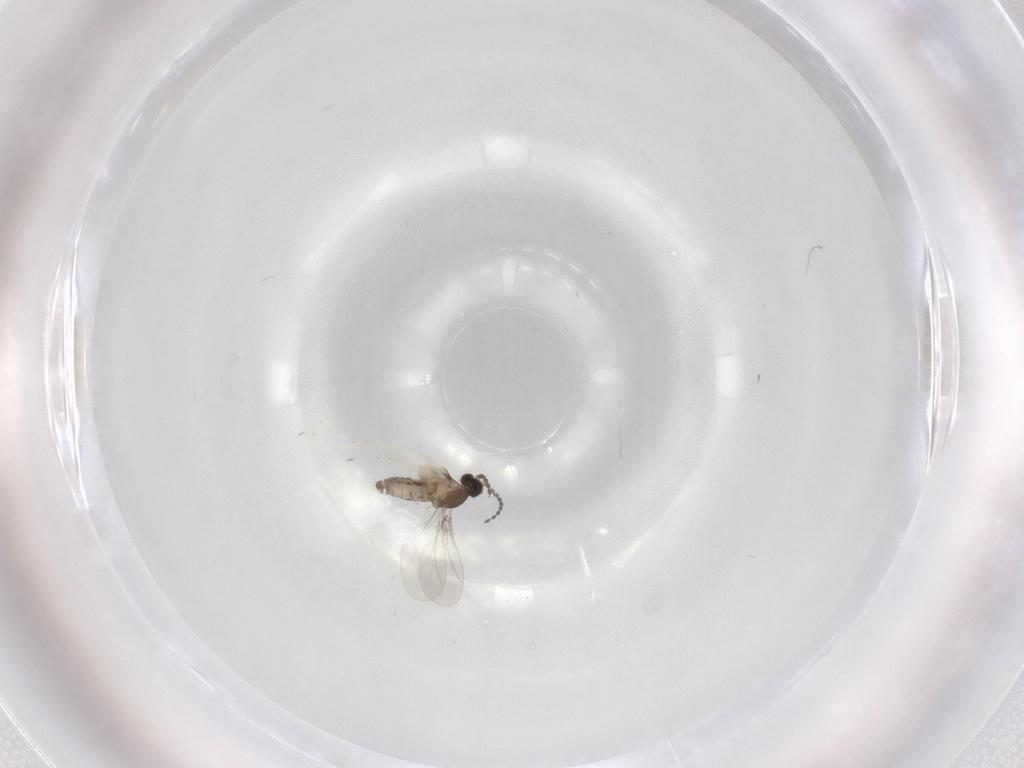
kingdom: Animalia
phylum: Arthropoda
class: Insecta
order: Diptera
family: Cecidomyiidae
